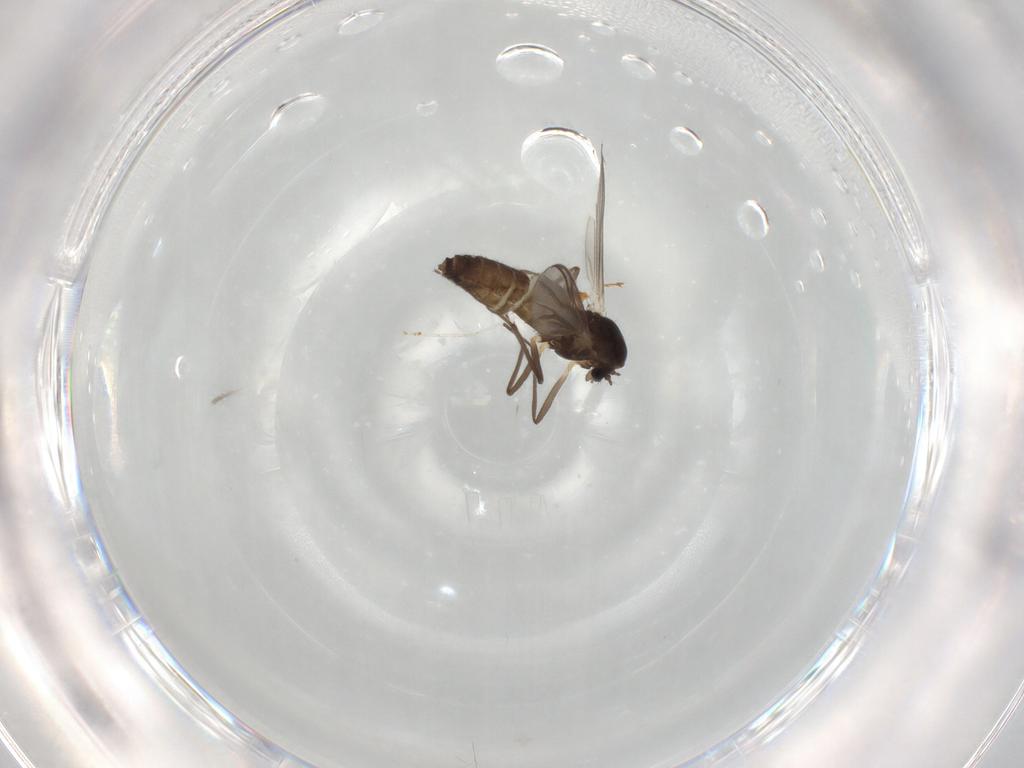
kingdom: Animalia
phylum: Arthropoda
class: Insecta
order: Diptera
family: Chironomidae
